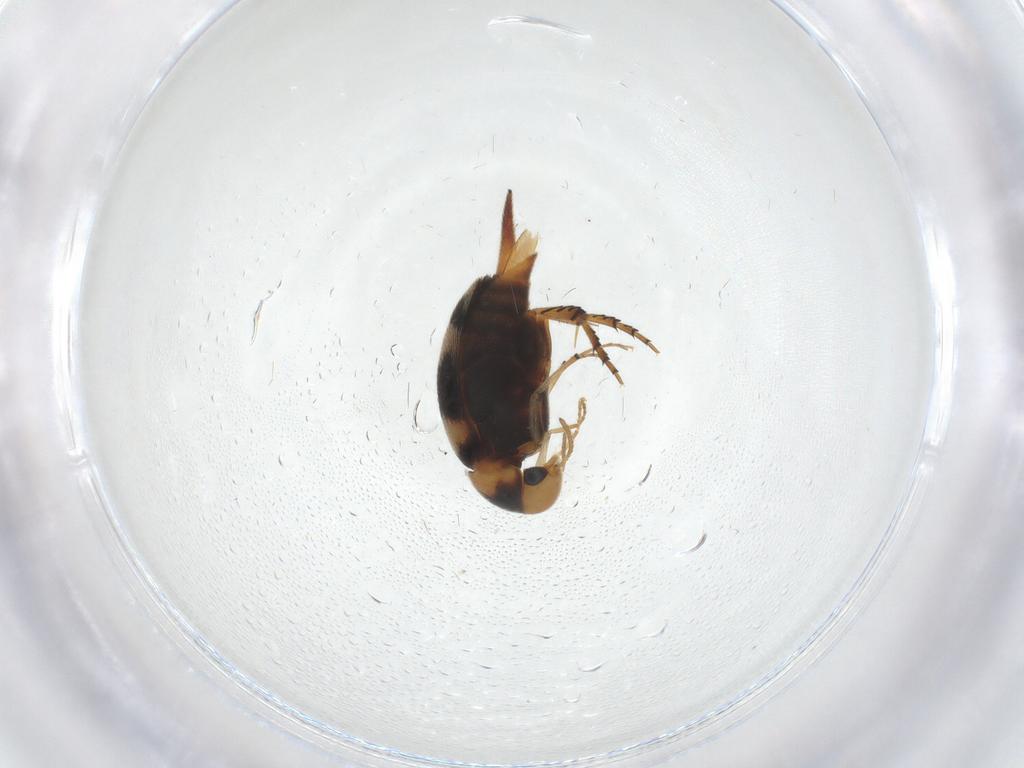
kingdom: Animalia
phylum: Arthropoda
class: Insecta
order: Coleoptera
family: Mordellidae
